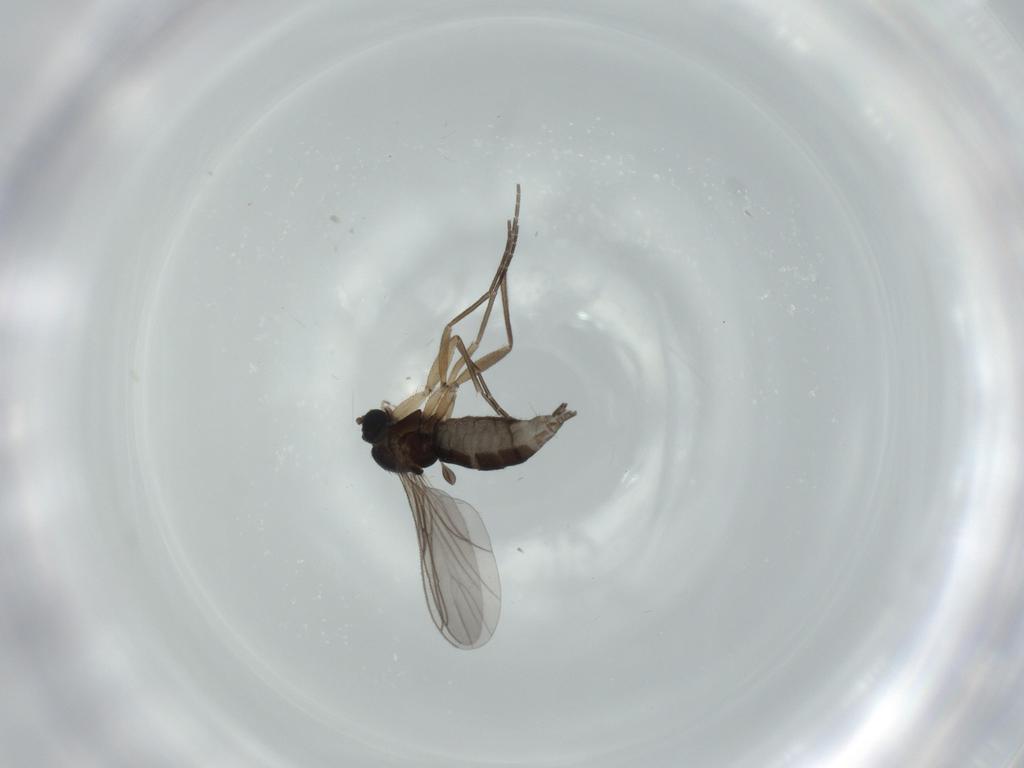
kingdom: Animalia
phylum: Arthropoda
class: Insecta
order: Diptera
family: Sciaridae
